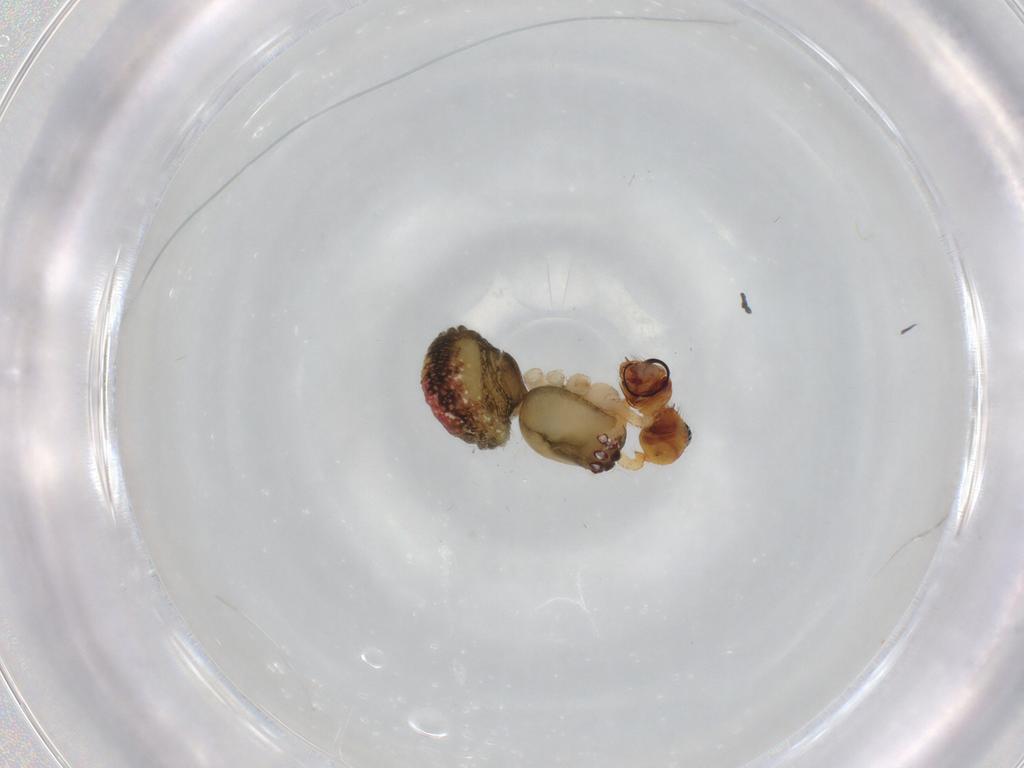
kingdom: Animalia
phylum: Arthropoda
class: Arachnida
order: Araneae
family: Theridiidae
